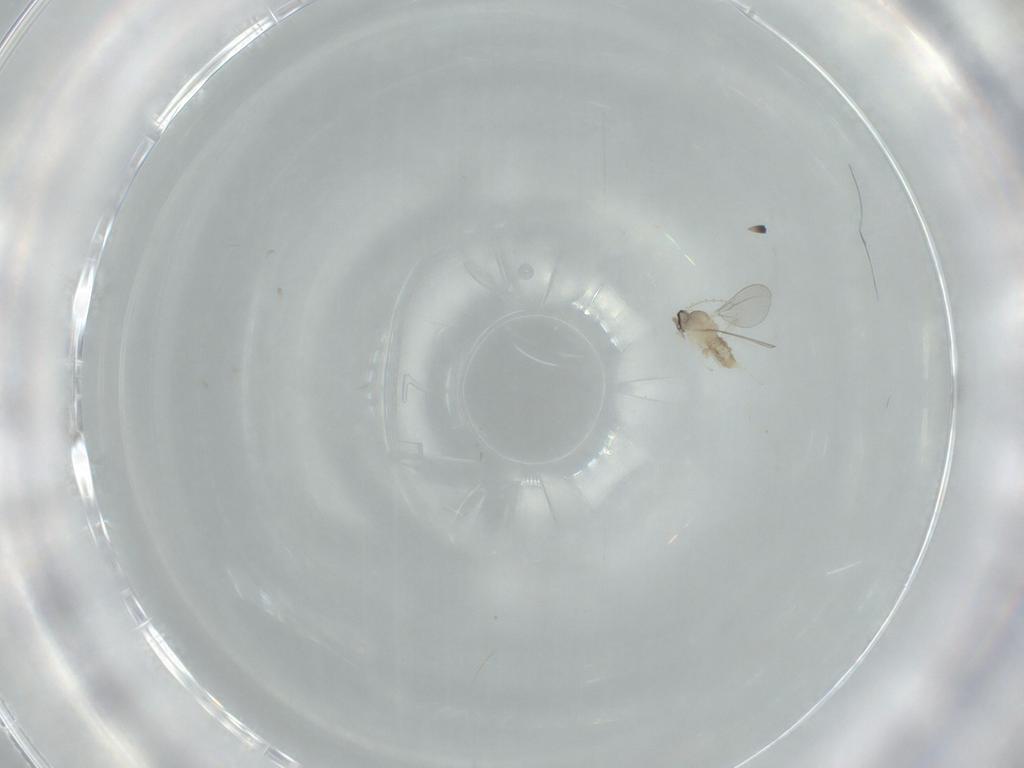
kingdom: Animalia
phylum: Arthropoda
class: Insecta
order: Diptera
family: Cecidomyiidae
